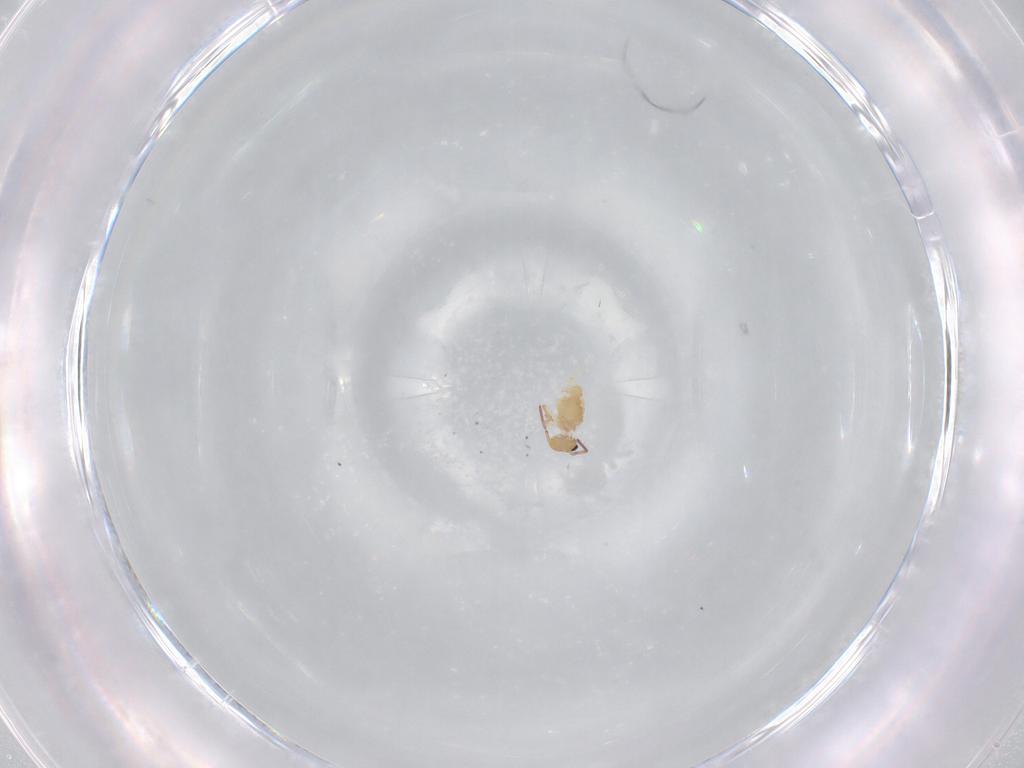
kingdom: Animalia
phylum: Arthropoda
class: Collembola
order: Symphypleona
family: Bourletiellidae
